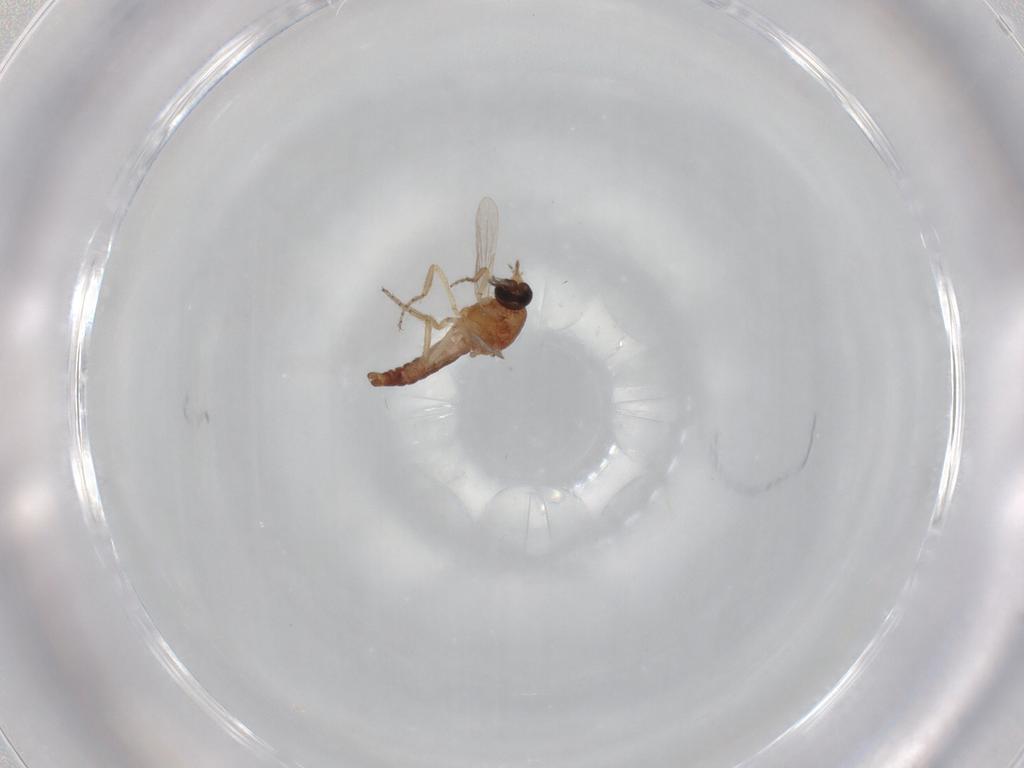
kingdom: Animalia
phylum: Arthropoda
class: Insecta
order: Diptera
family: Ceratopogonidae
